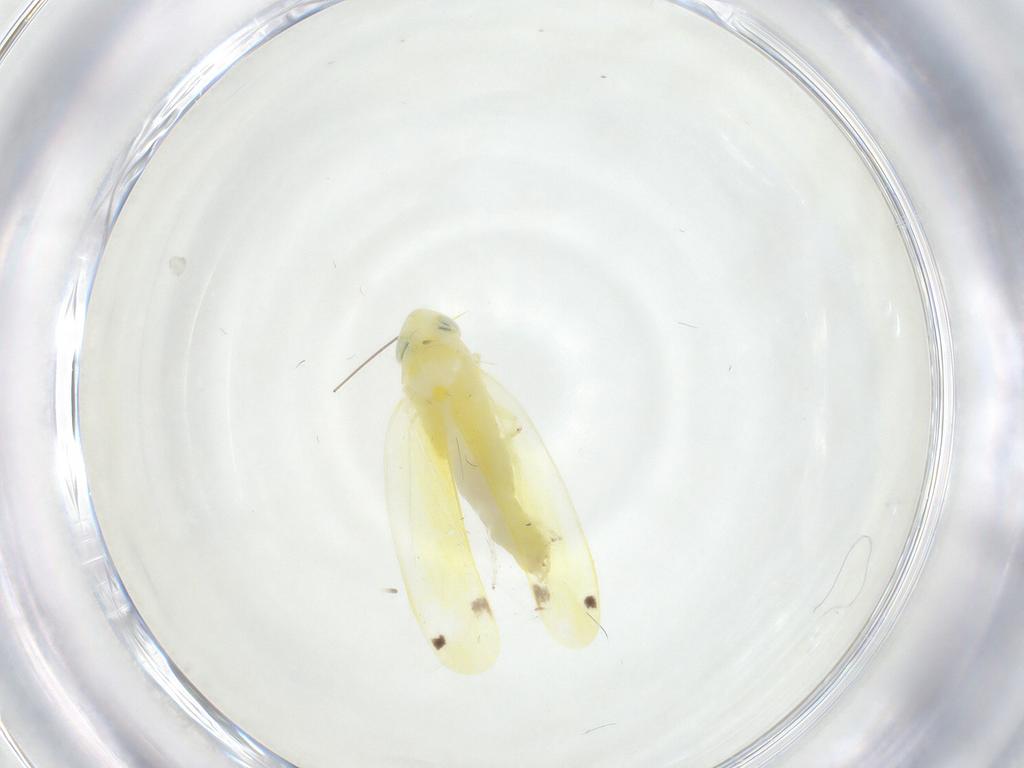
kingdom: Animalia
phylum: Arthropoda
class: Insecta
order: Hemiptera
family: Cicadellidae
